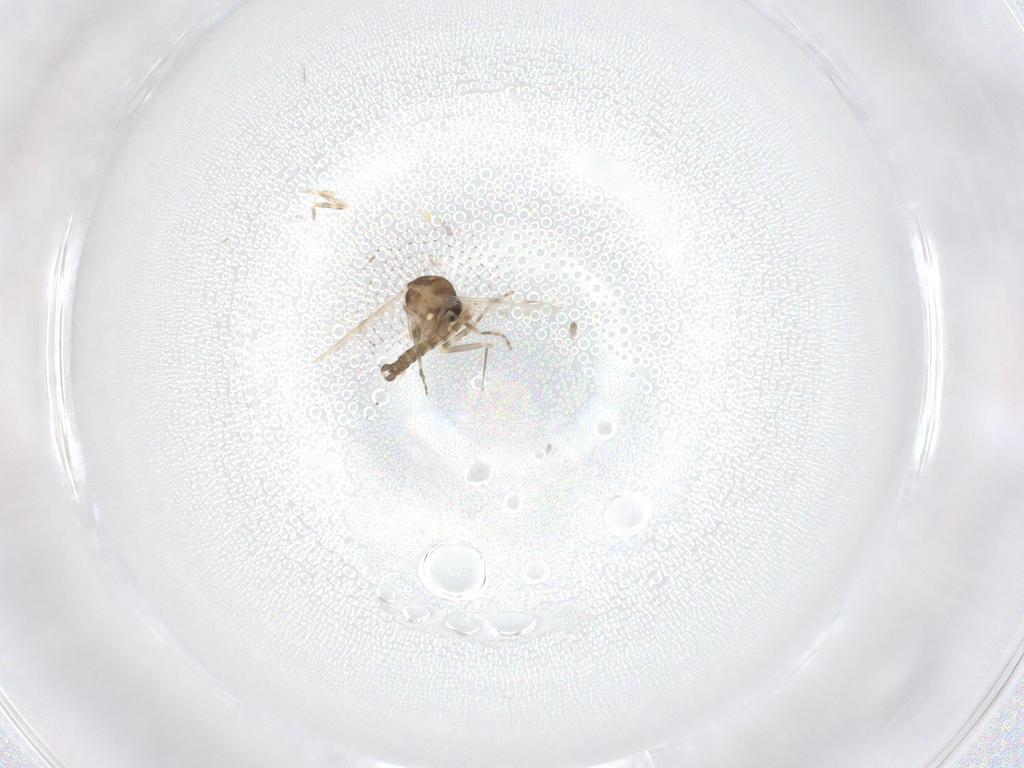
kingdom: Animalia
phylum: Arthropoda
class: Insecta
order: Diptera
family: Ceratopogonidae
